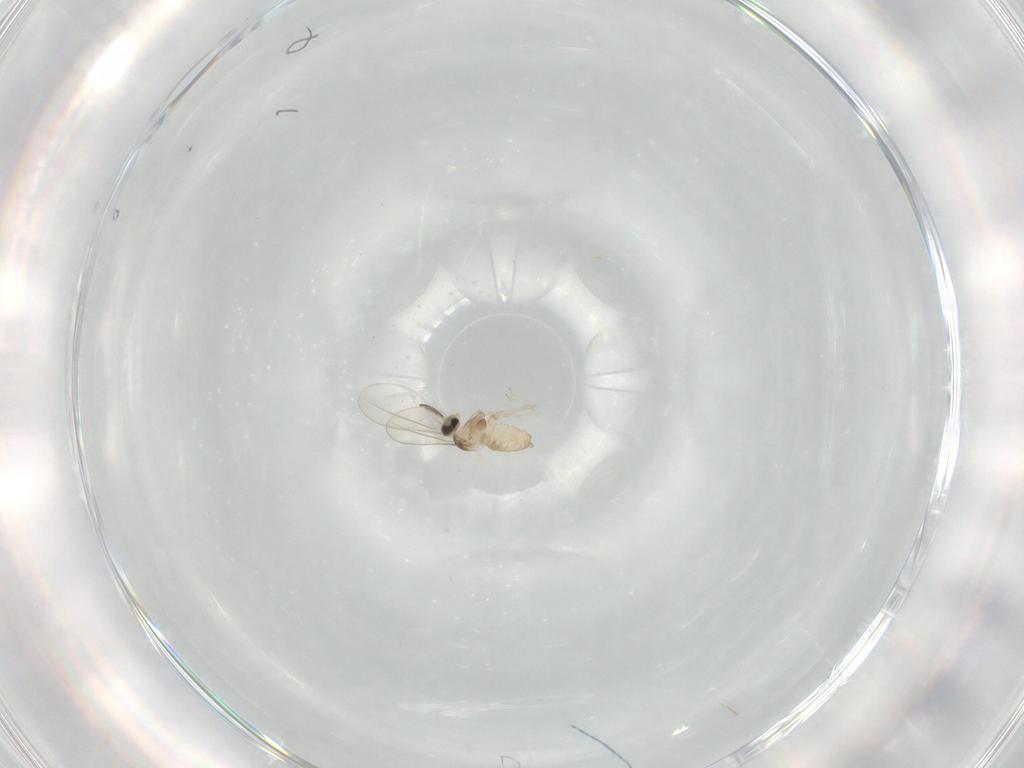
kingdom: Animalia
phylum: Arthropoda
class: Insecta
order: Diptera
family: Cecidomyiidae
